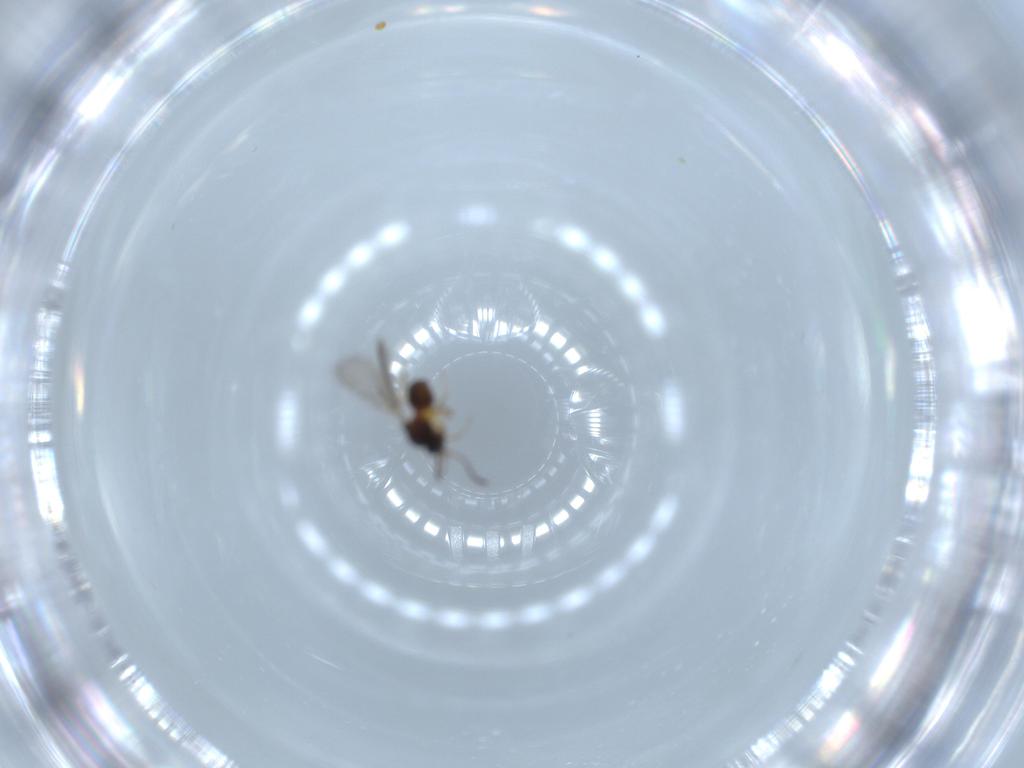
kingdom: Animalia
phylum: Arthropoda
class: Insecta
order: Hymenoptera
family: Figitidae
